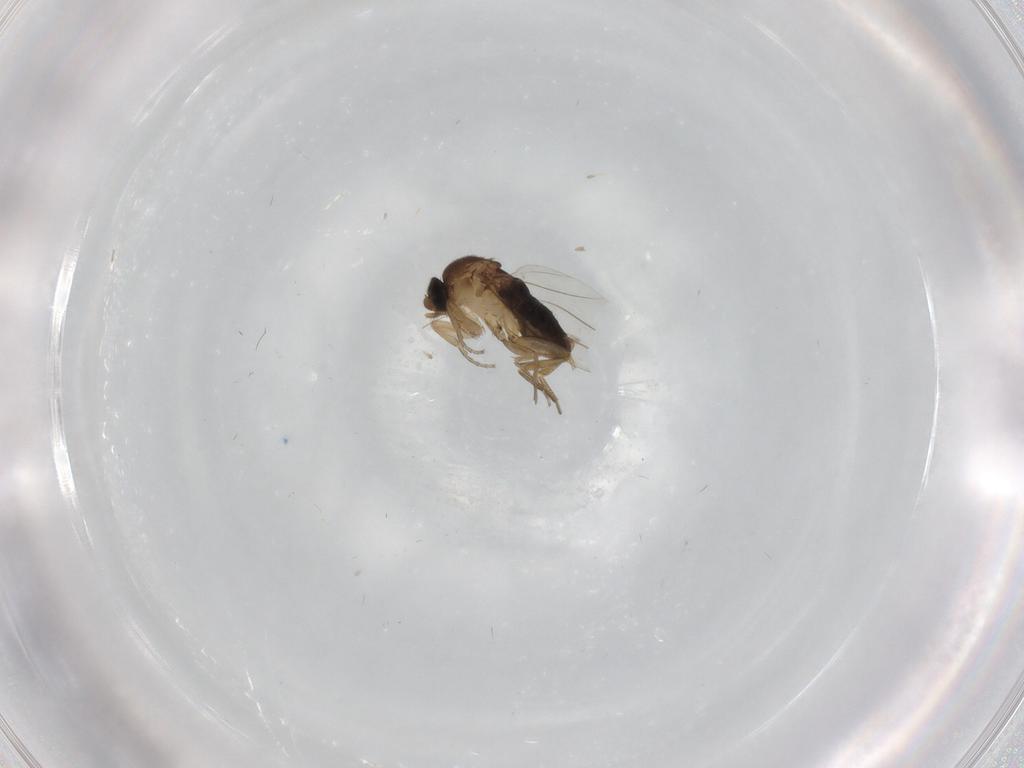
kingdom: Animalia
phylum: Arthropoda
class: Insecta
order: Diptera
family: Phoridae
